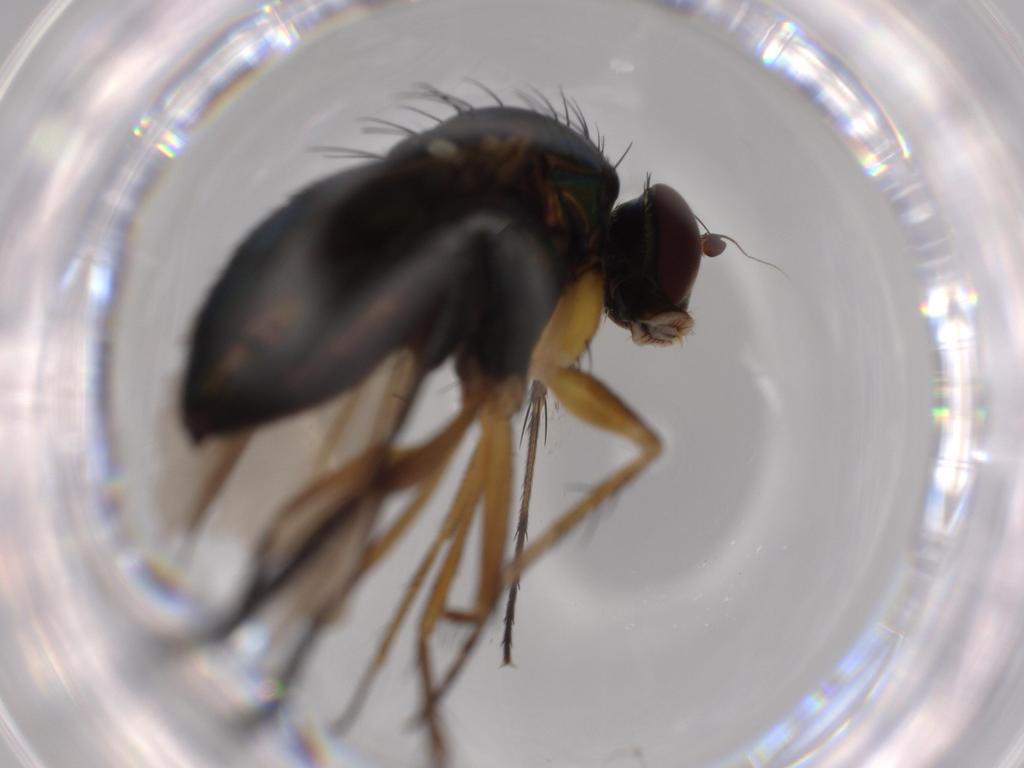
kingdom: Animalia
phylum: Arthropoda
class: Insecta
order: Diptera
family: Dolichopodidae
